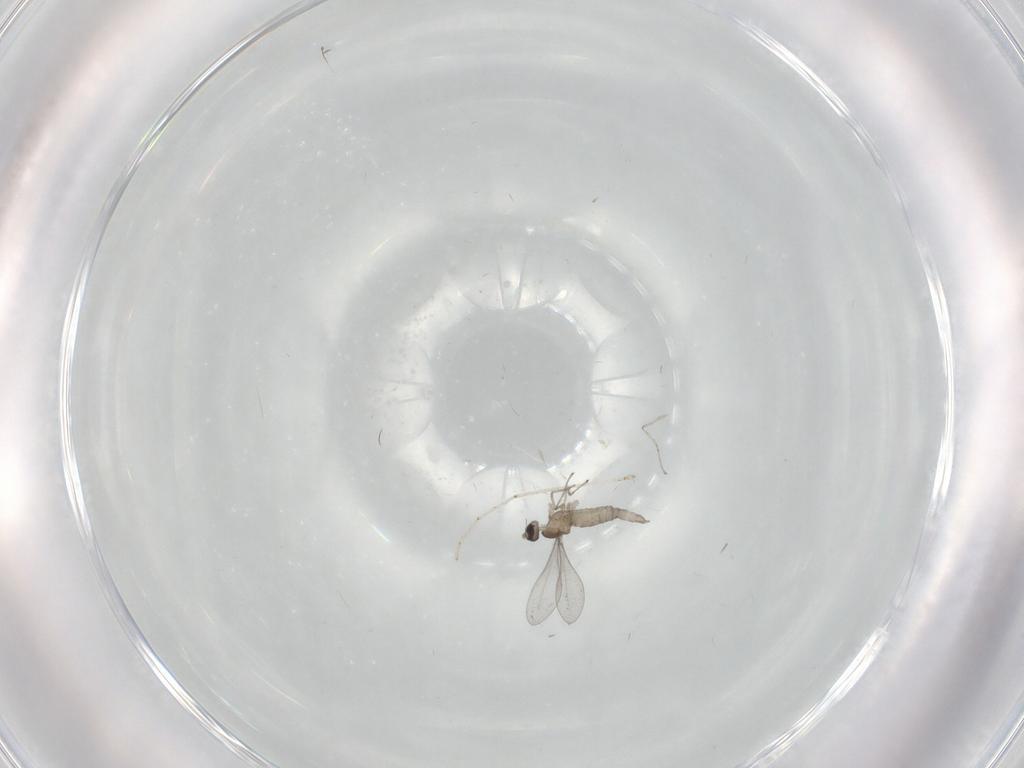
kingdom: Animalia
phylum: Arthropoda
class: Insecta
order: Diptera
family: Cecidomyiidae
